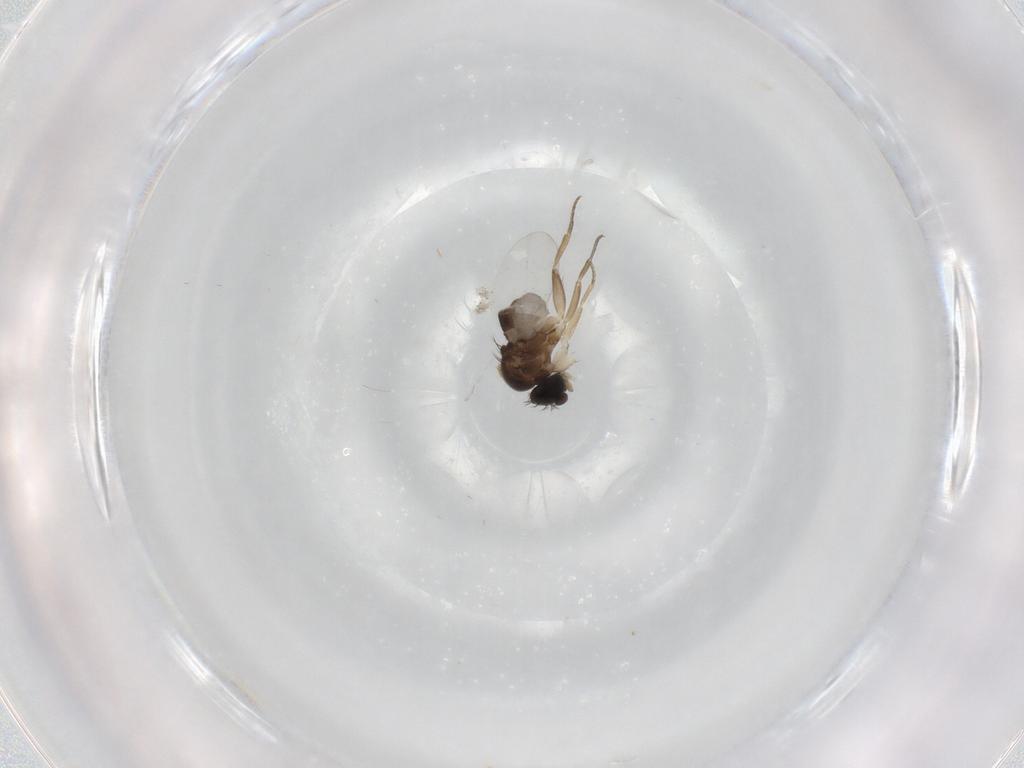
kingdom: Animalia
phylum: Arthropoda
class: Insecta
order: Diptera
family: Phoridae
